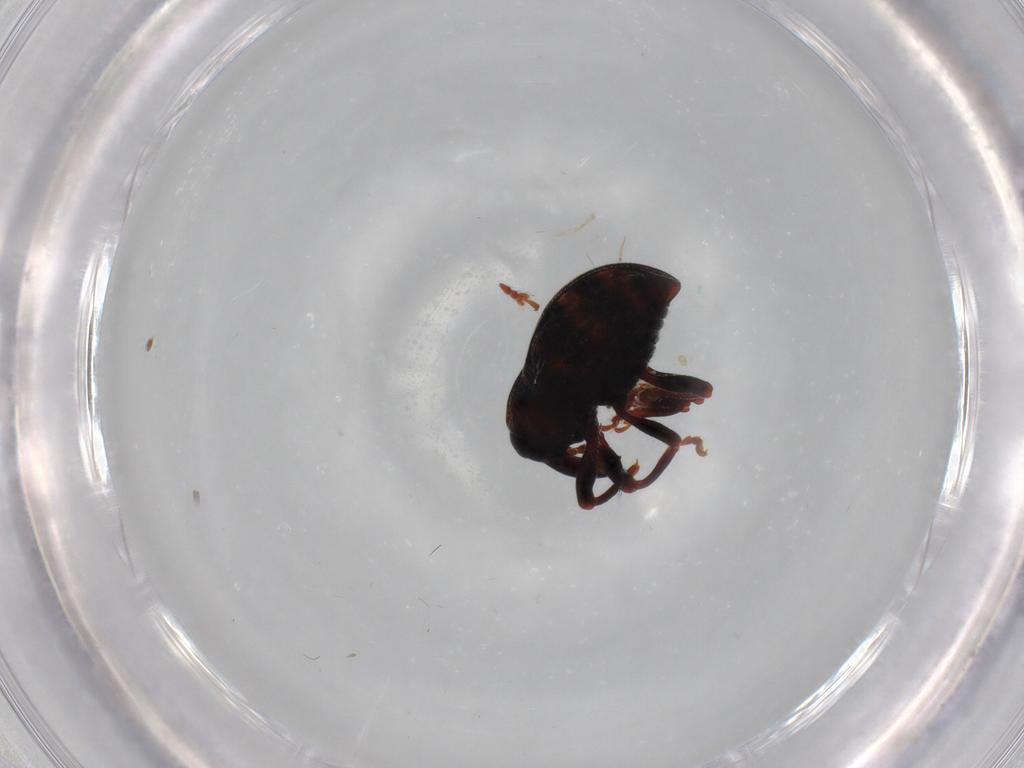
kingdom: Animalia
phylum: Arthropoda
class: Insecta
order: Coleoptera
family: Curculionidae
